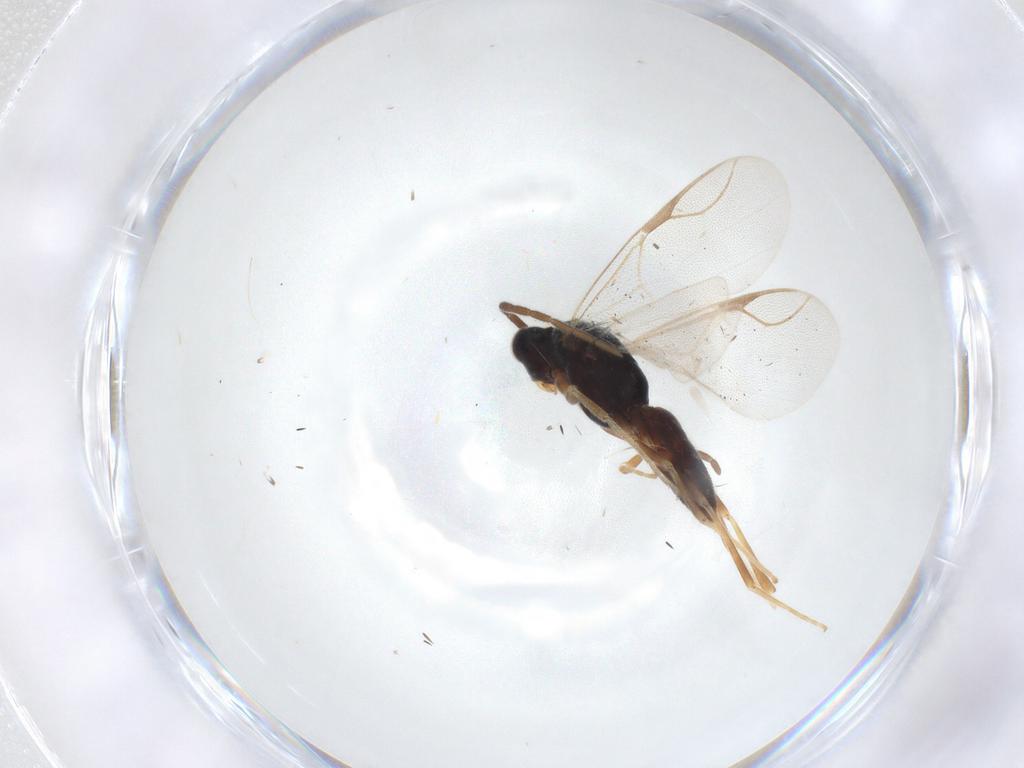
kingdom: Animalia
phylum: Arthropoda
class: Insecta
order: Hymenoptera
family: Dryinidae
